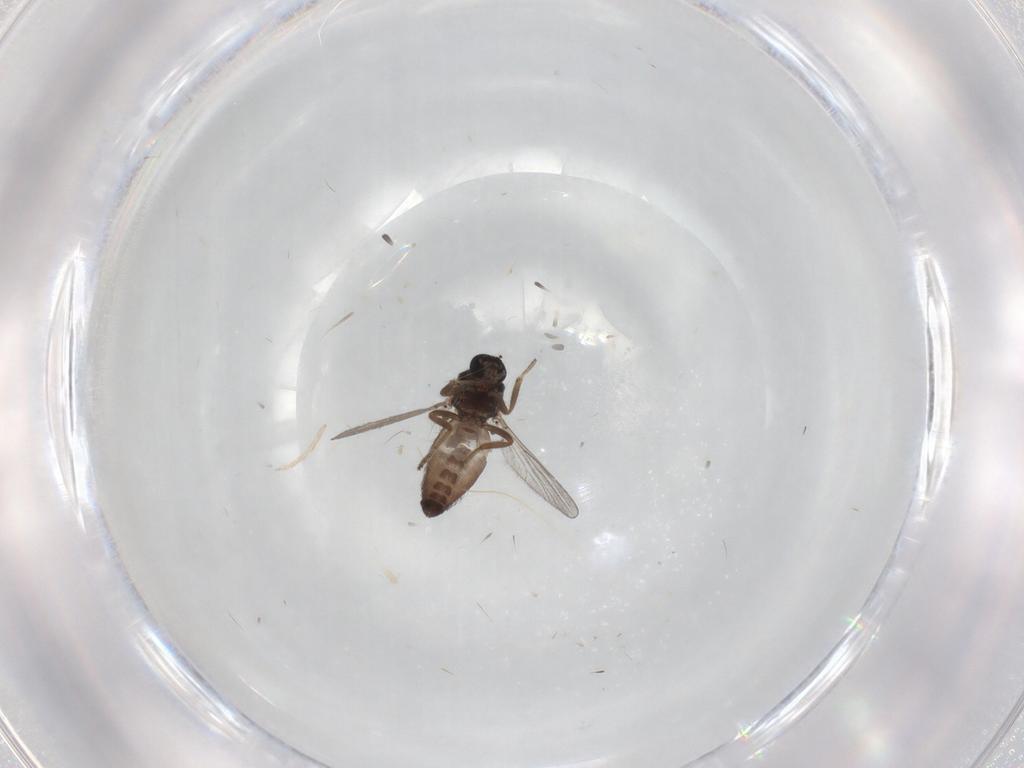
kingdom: Animalia
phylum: Arthropoda
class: Insecta
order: Diptera
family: Ceratopogonidae
